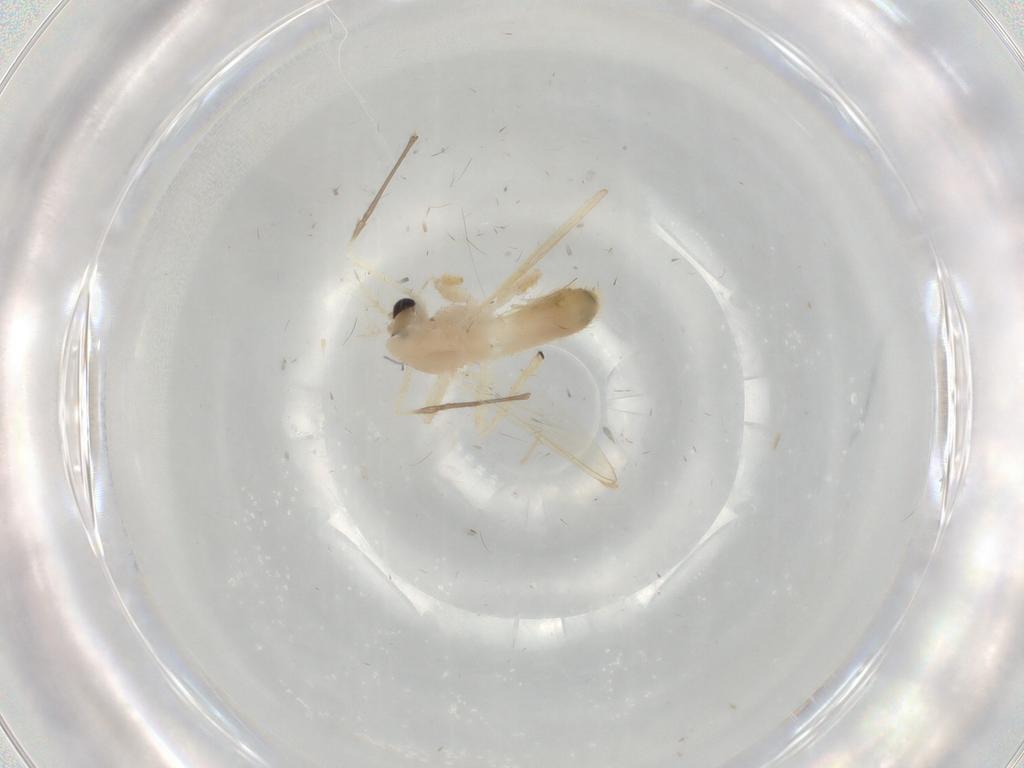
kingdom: Animalia
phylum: Arthropoda
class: Insecta
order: Diptera
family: Chironomidae
